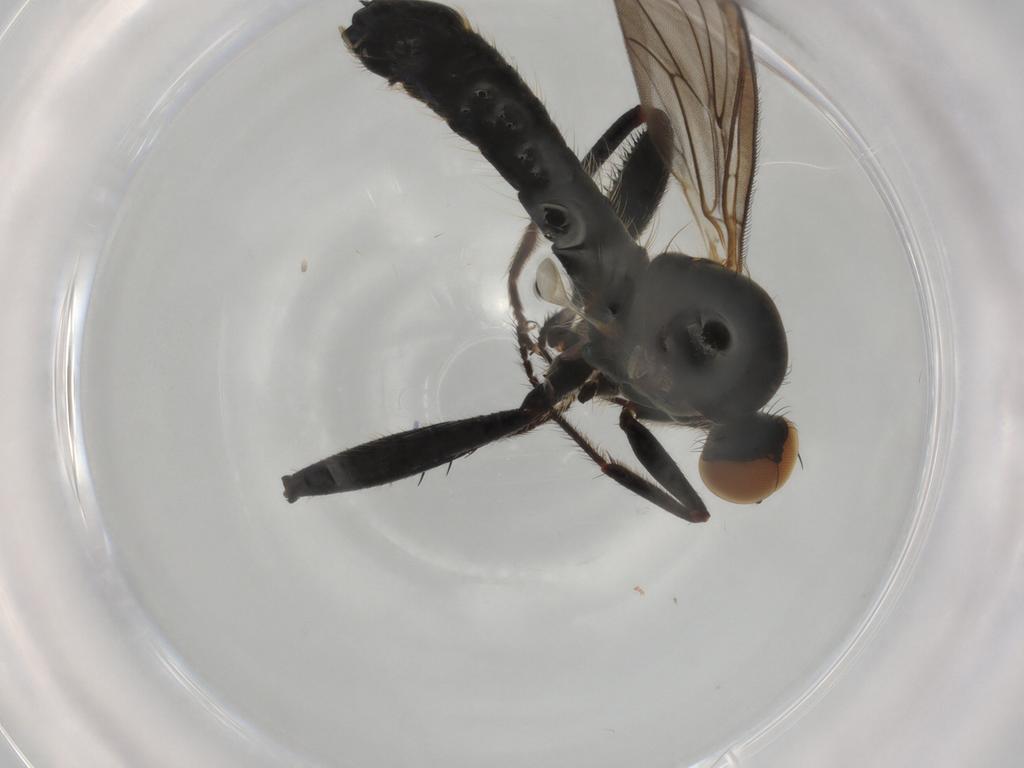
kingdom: Animalia
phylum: Arthropoda
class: Insecta
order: Diptera
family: Hybotidae
